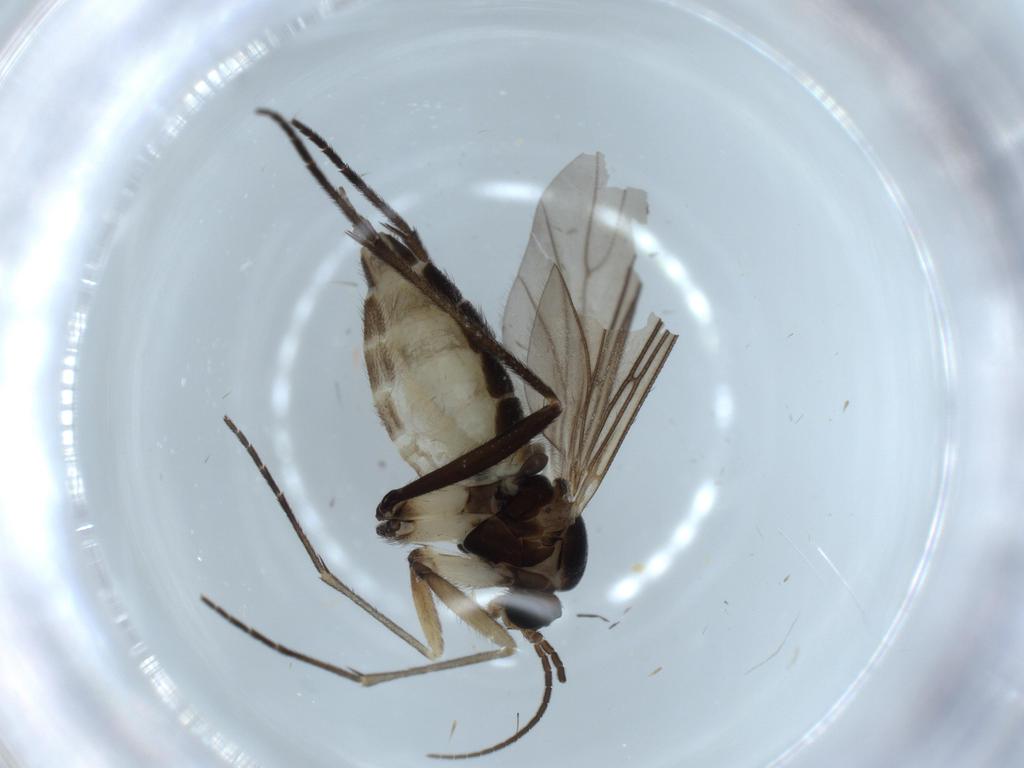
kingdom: Animalia
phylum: Arthropoda
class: Insecta
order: Diptera
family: Sciaridae
